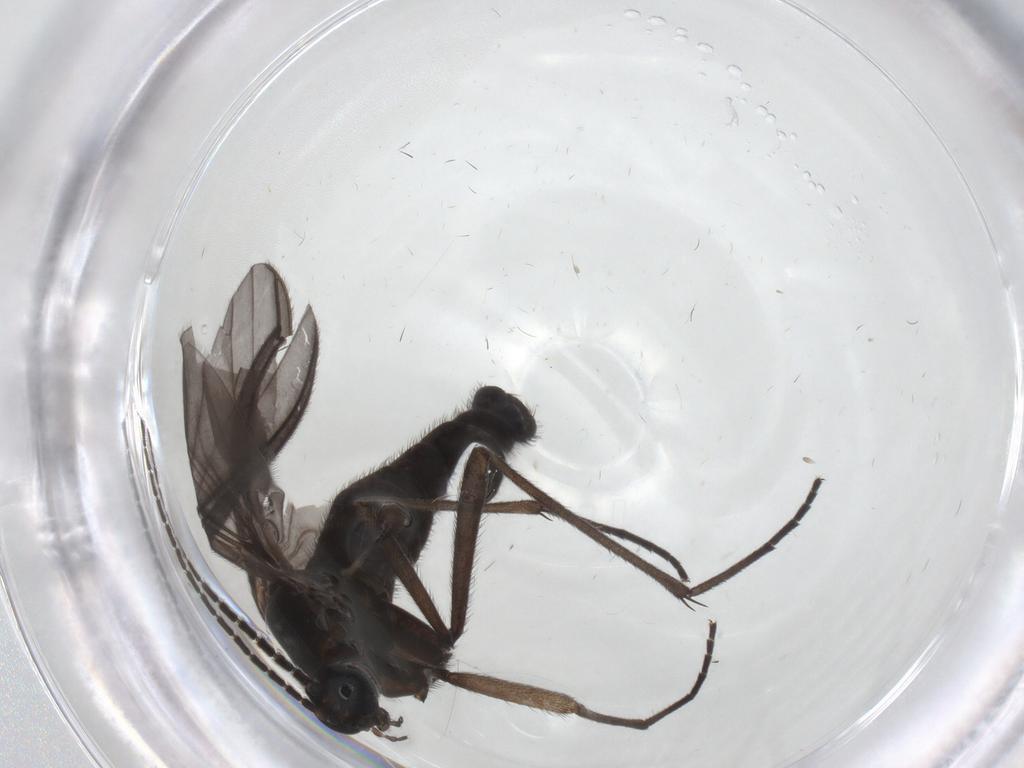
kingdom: Animalia
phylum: Arthropoda
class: Insecta
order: Diptera
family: Sciaridae
